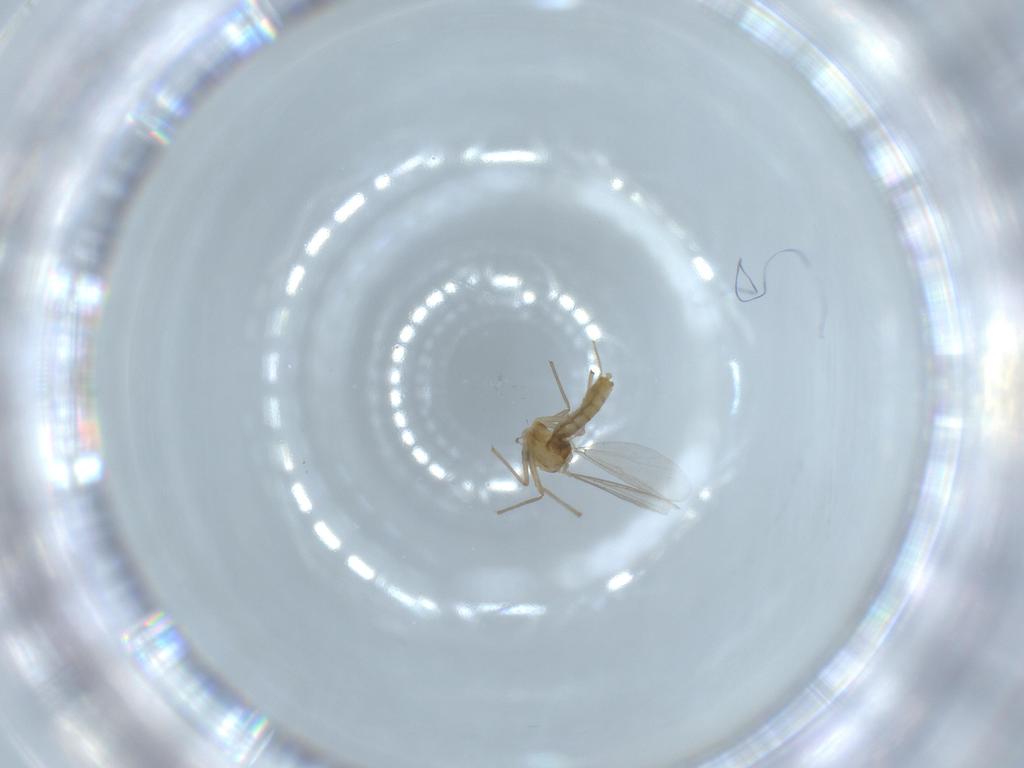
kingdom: Animalia
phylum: Arthropoda
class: Insecta
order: Diptera
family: Chironomidae
